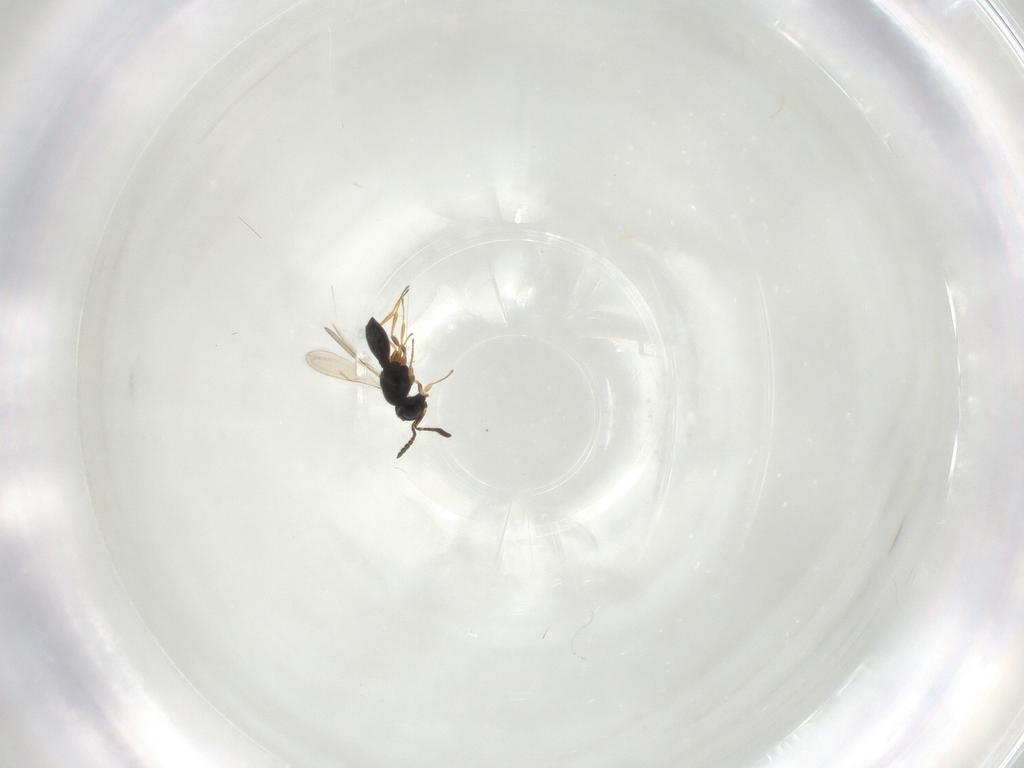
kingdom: Animalia
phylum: Arthropoda
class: Insecta
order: Hymenoptera
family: Scelionidae
